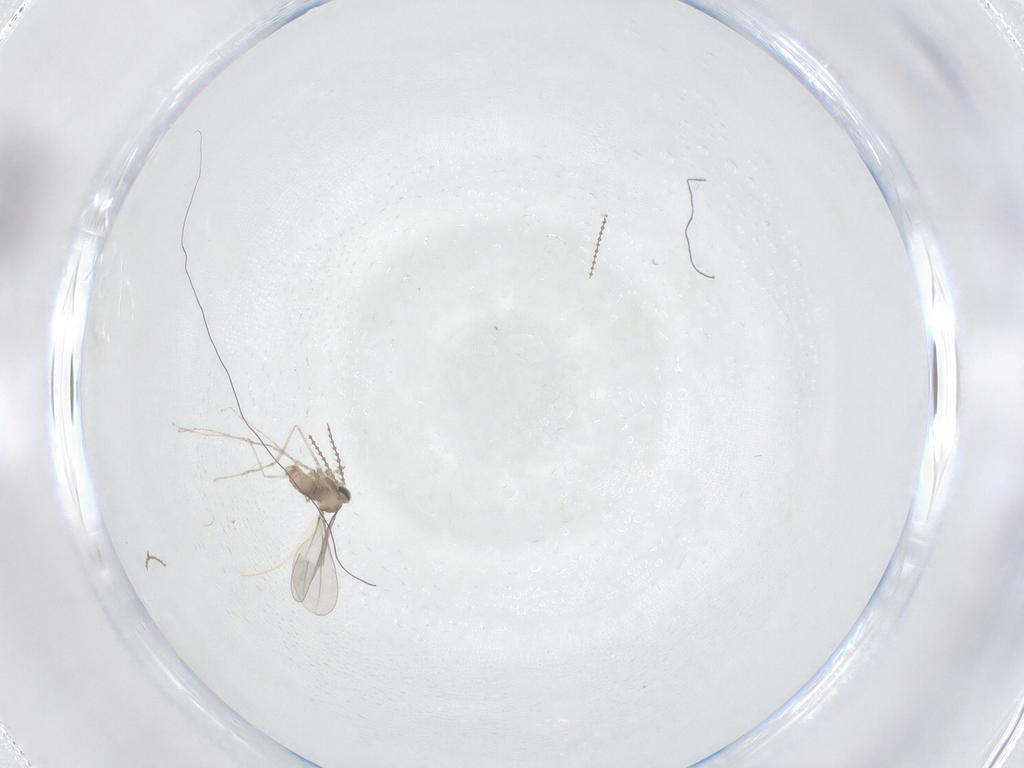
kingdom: Animalia
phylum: Arthropoda
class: Insecta
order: Diptera
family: Cecidomyiidae
